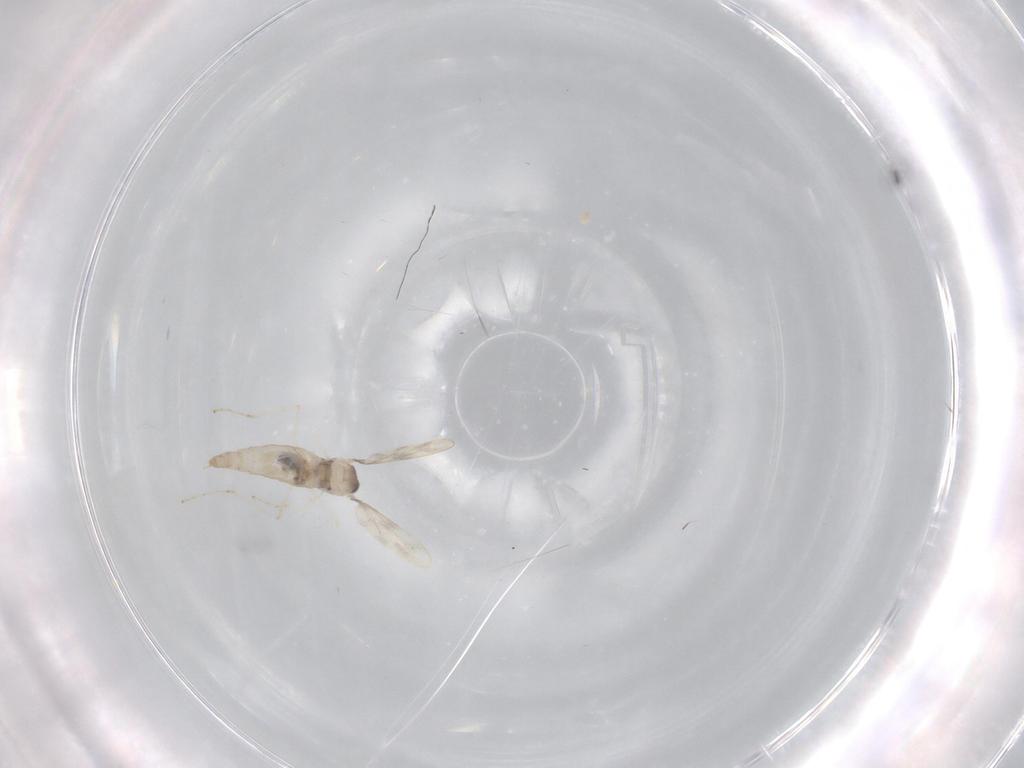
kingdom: Animalia
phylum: Arthropoda
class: Insecta
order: Diptera
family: Cecidomyiidae
